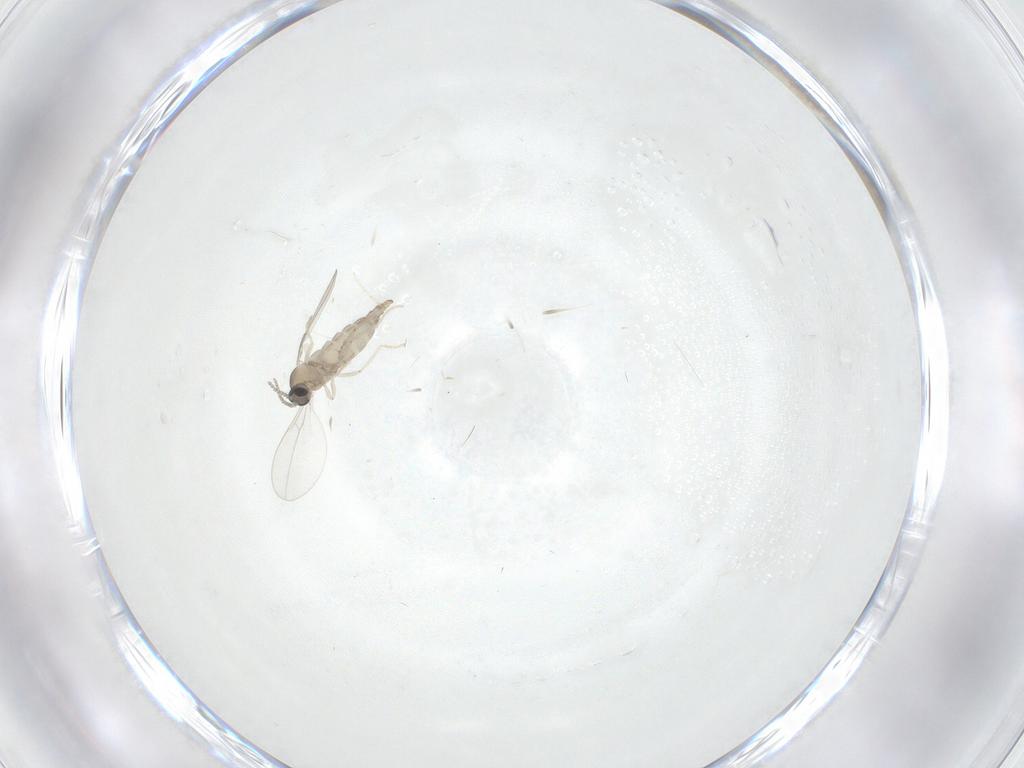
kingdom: Animalia
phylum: Arthropoda
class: Insecta
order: Diptera
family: Cecidomyiidae
